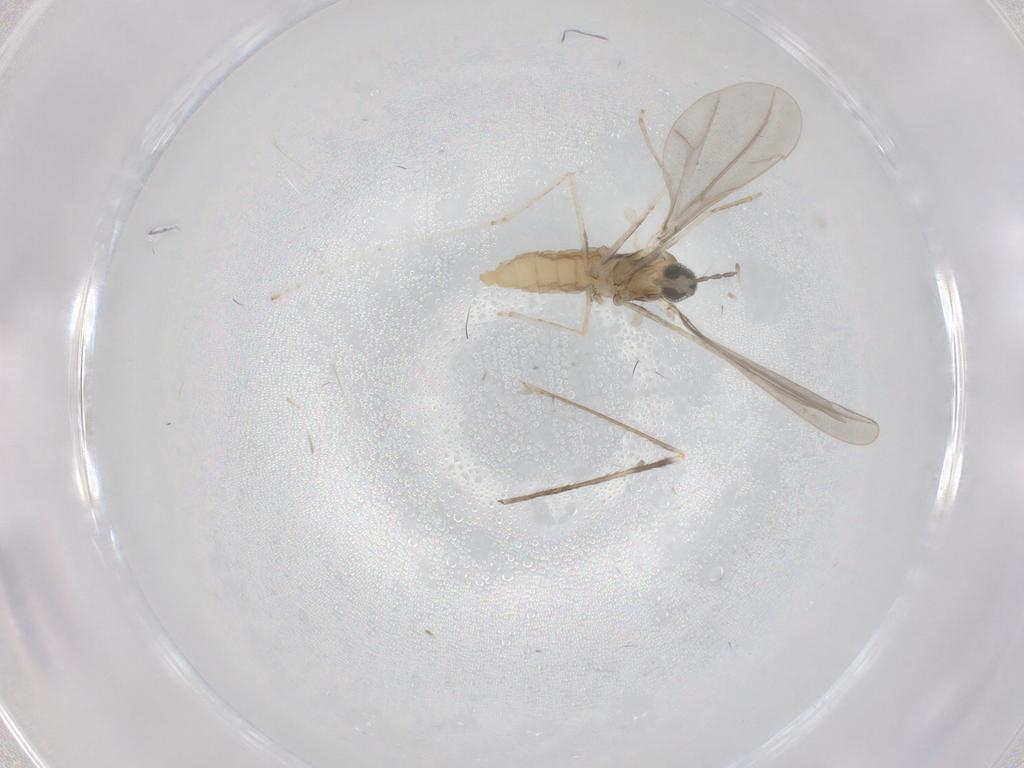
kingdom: Animalia
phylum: Arthropoda
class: Insecta
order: Diptera
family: Cecidomyiidae
